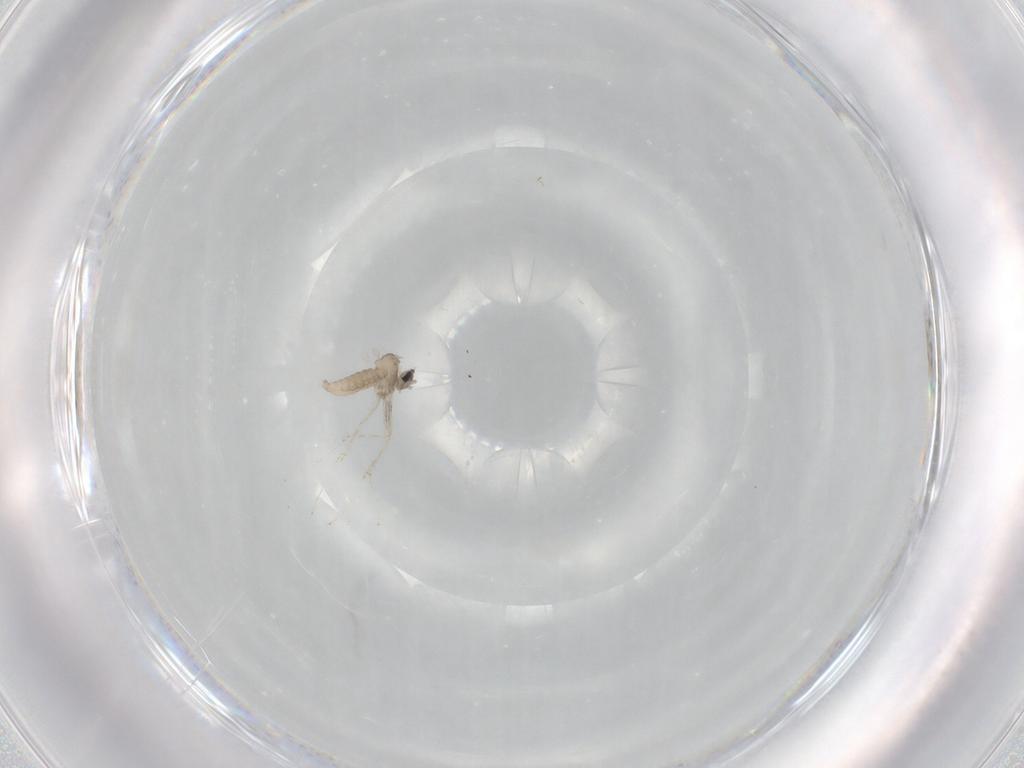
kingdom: Animalia
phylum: Arthropoda
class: Insecta
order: Diptera
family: Cecidomyiidae
